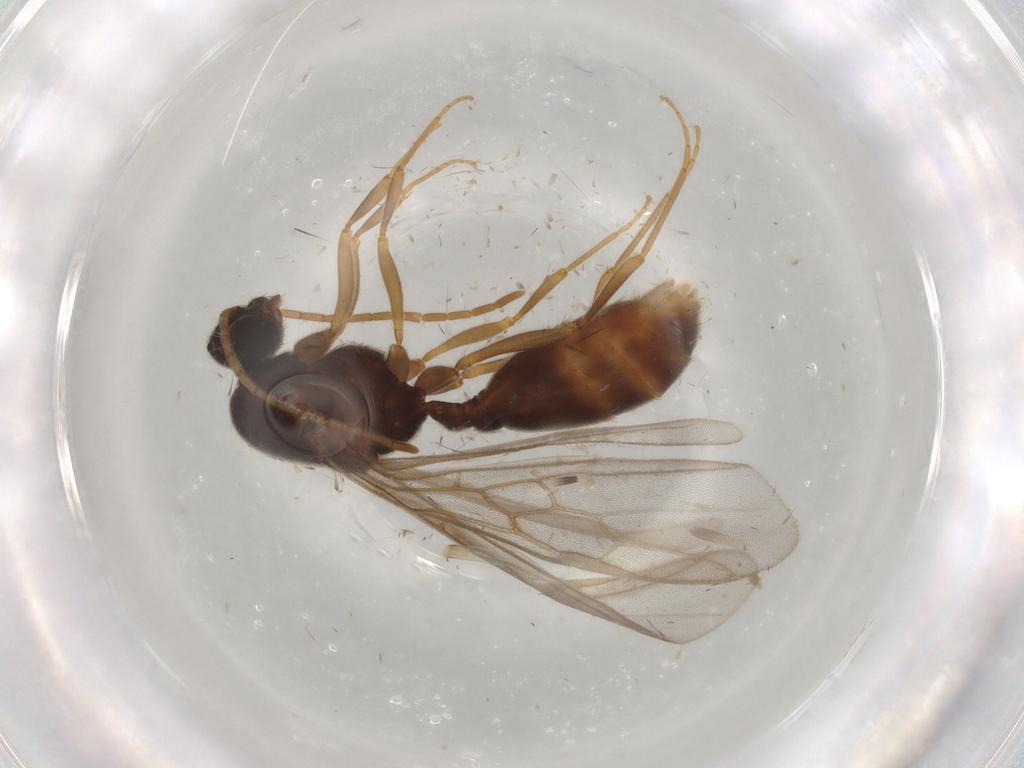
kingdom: Animalia
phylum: Arthropoda
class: Insecta
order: Hymenoptera
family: Formicidae
